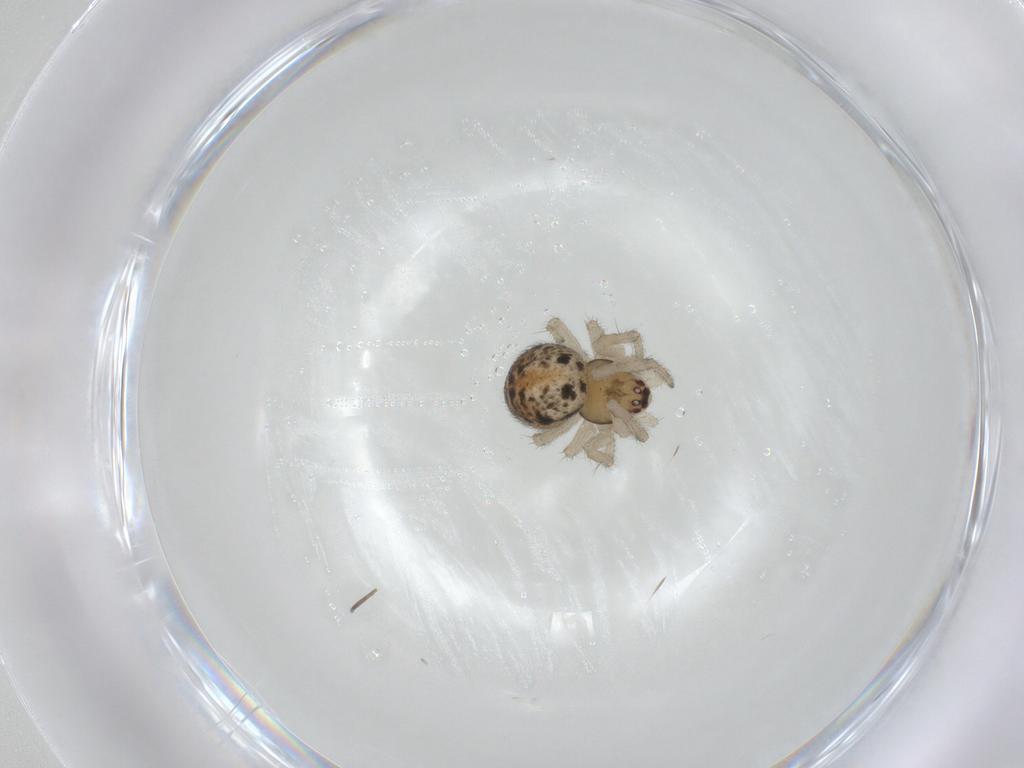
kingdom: Animalia
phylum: Arthropoda
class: Arachnida
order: Araneae
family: Theridiidae
